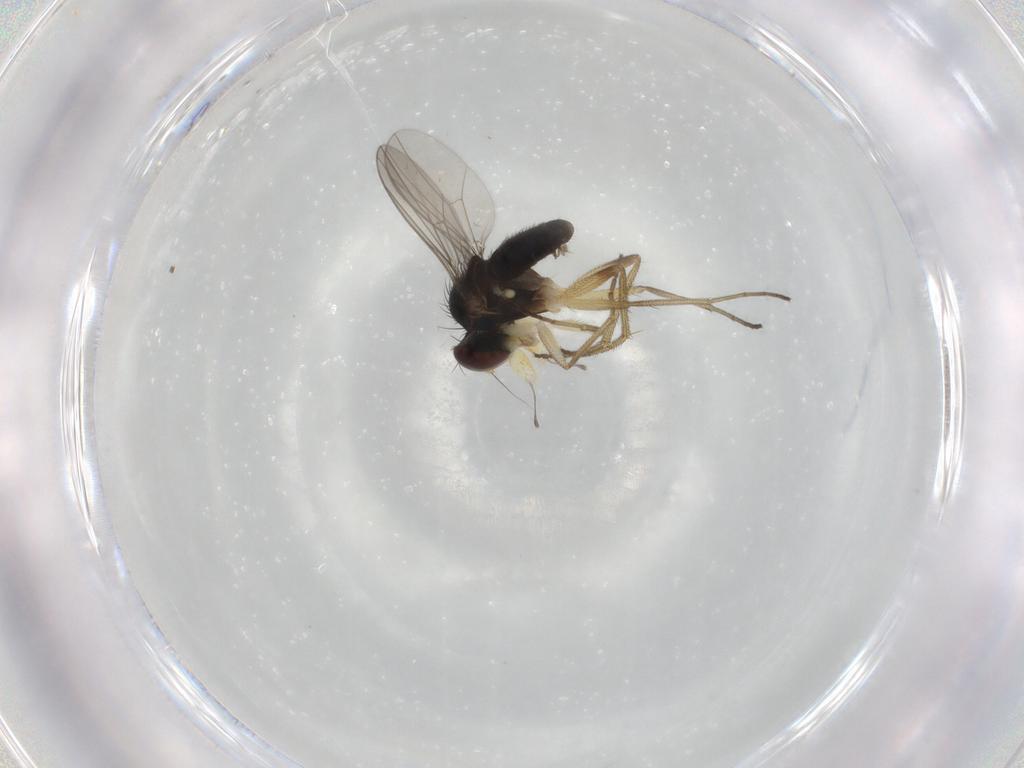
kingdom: Animalia
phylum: Arthropoda
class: Insecta
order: Diptera
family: Dolichopodidae
